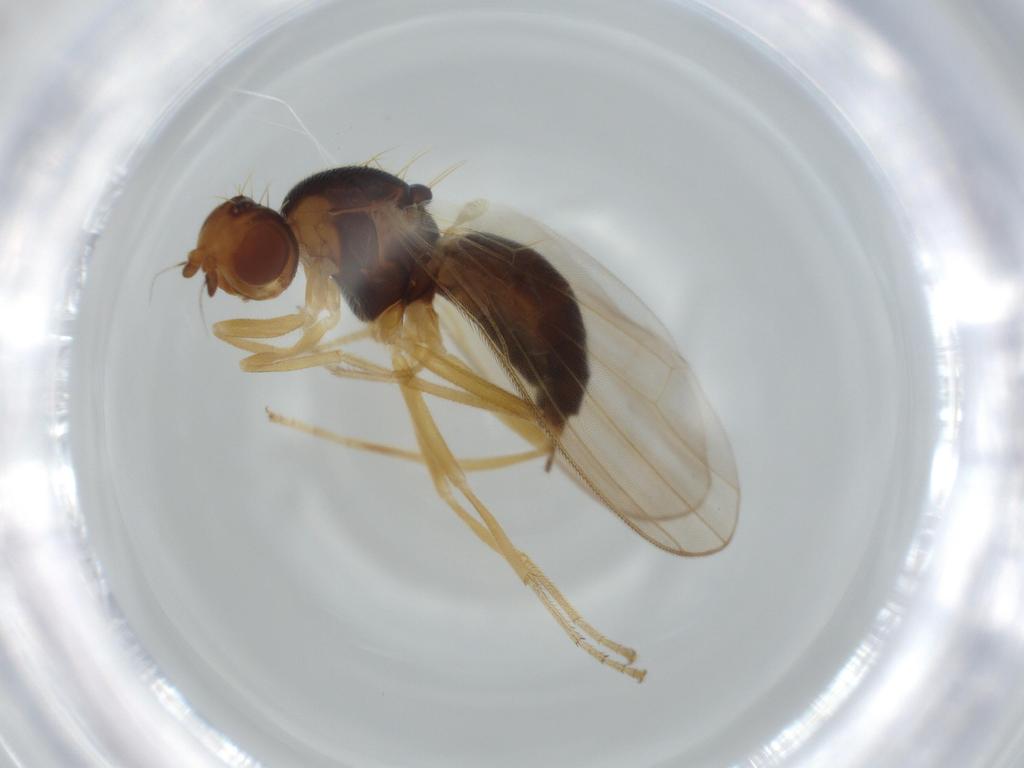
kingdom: Animalia
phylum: Arthropoda
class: Insecta
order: Diptera
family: Psilidae
